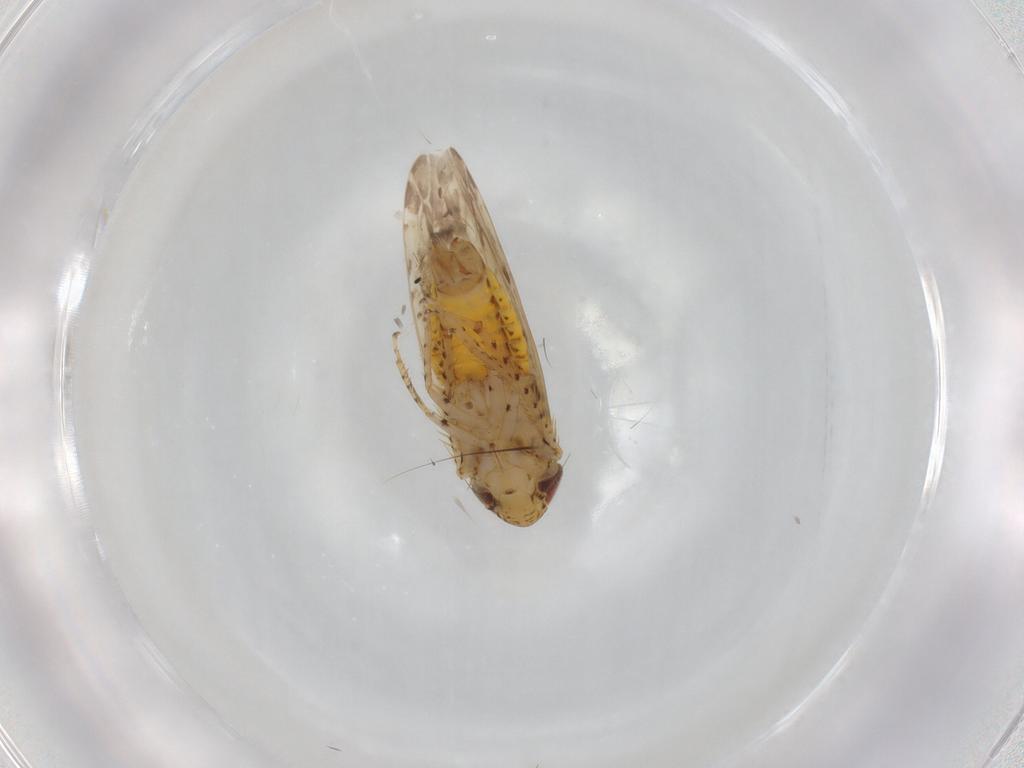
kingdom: Animalia
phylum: Arthropoda
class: Insecta
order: Hemiptera
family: Cicadellidae
